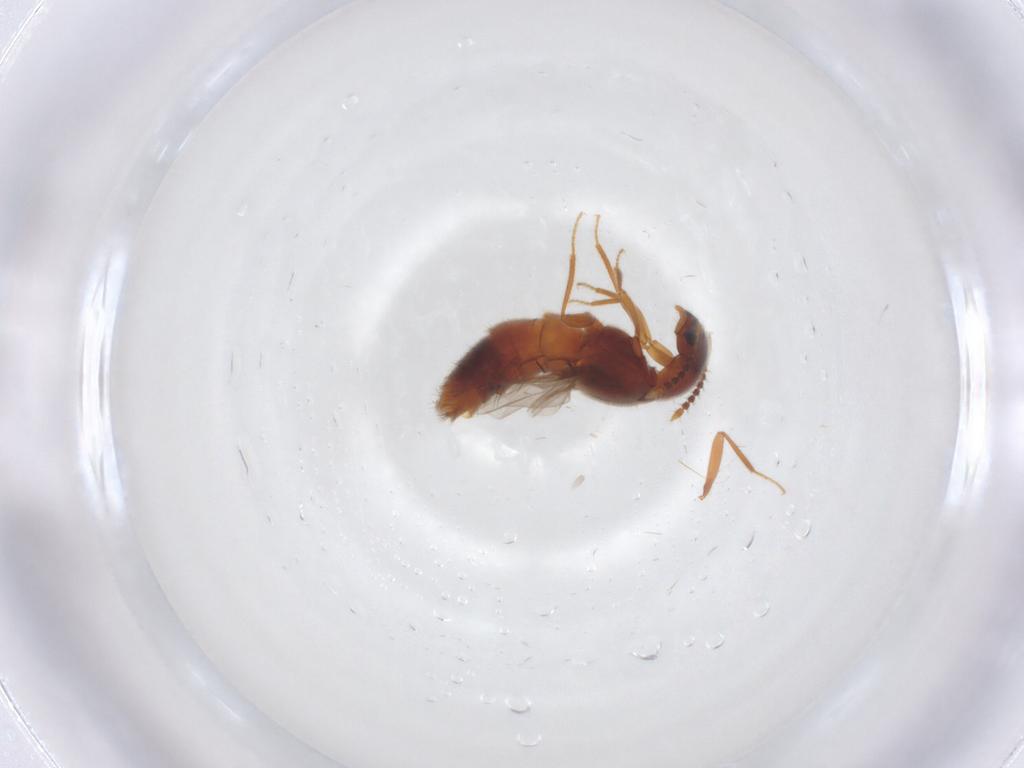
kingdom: Animalia
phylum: Arthropoda
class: Insecta
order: Coleoptera
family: Staphylinidae
